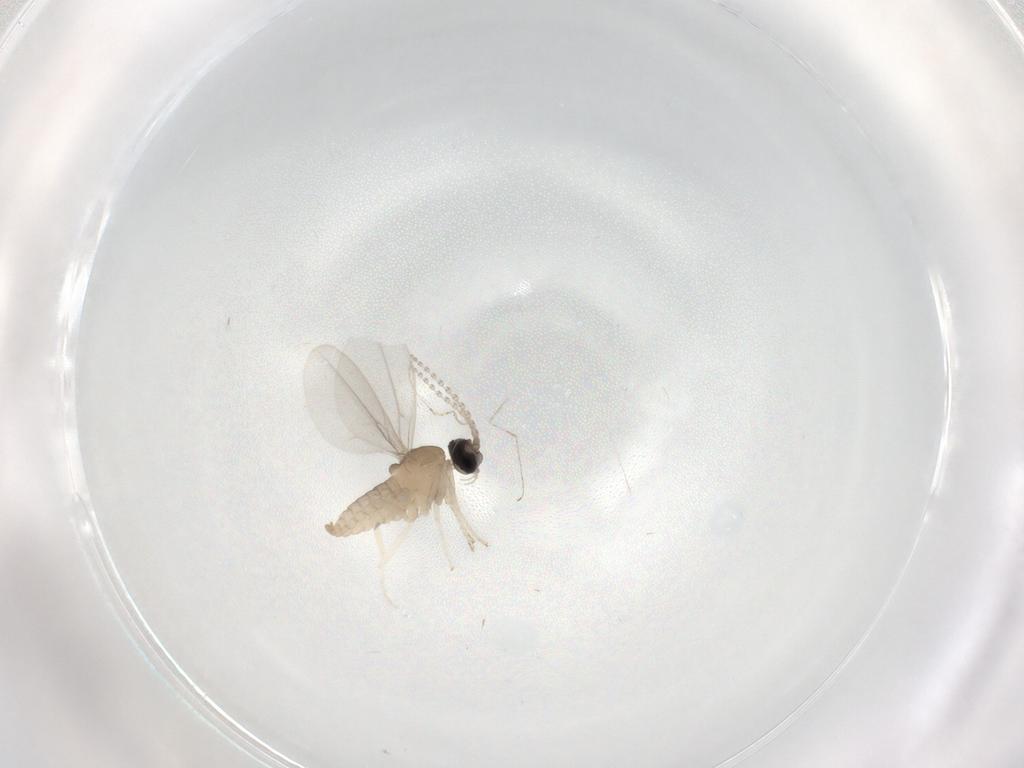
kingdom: Animalia
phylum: Arthropoda
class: Insecta
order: Diptera
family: Cecidomyiidae
